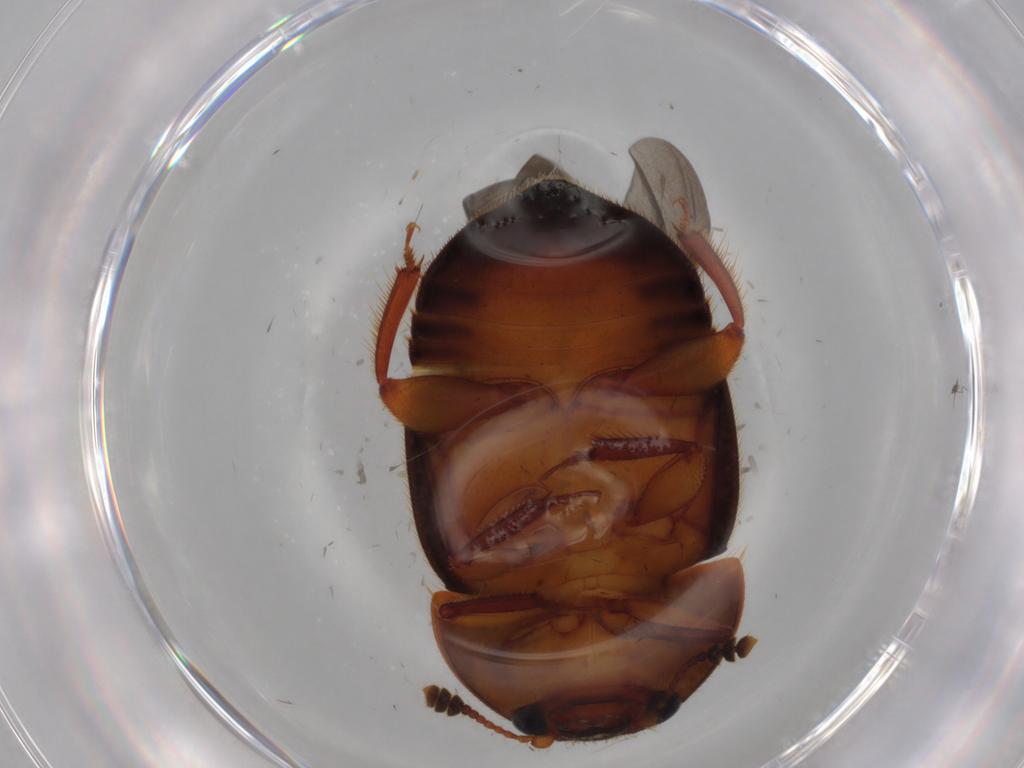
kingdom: Animalia
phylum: Arthropoda
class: Insecta
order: Coleoptera
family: Nitidulidae
